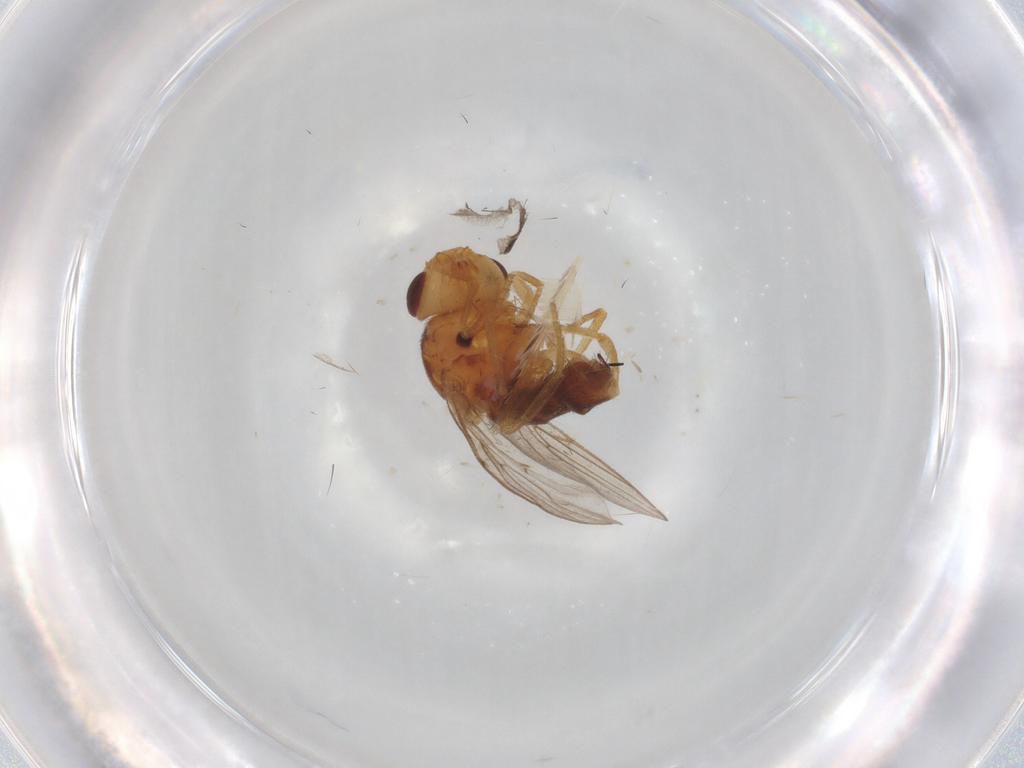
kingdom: Animalia
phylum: Arthropoda
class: Insecta
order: Diptera
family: Chloropidae
